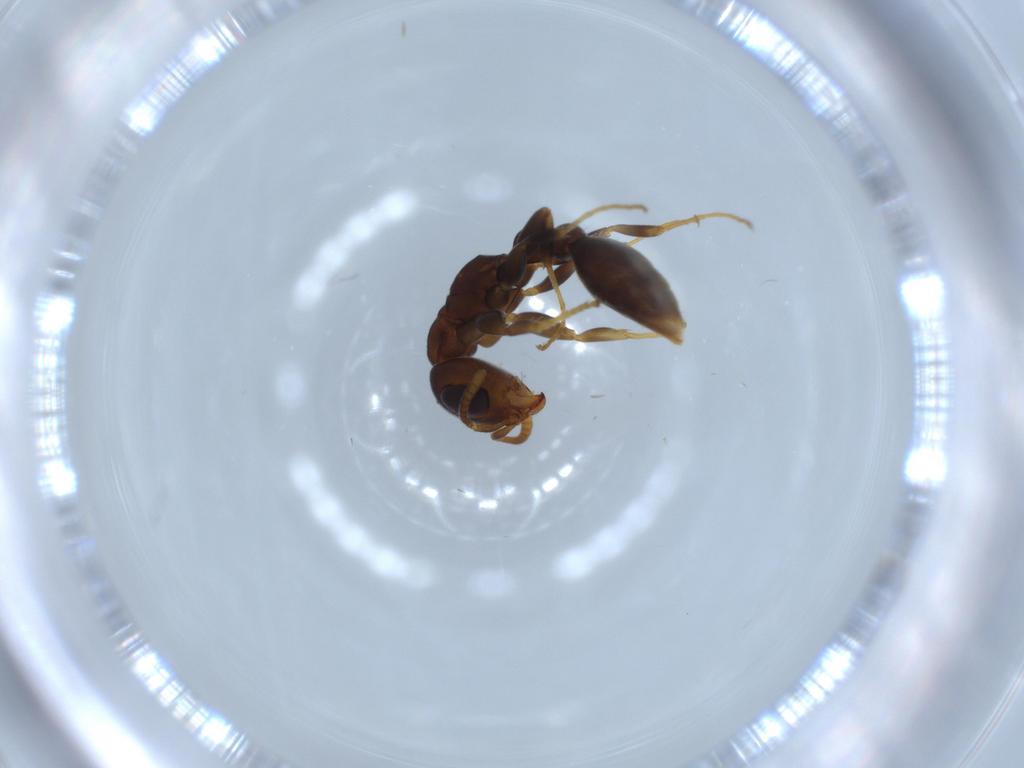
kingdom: Animalia
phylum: Arthropoda
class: Insecta
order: Hymenoptera
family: Formicidae
